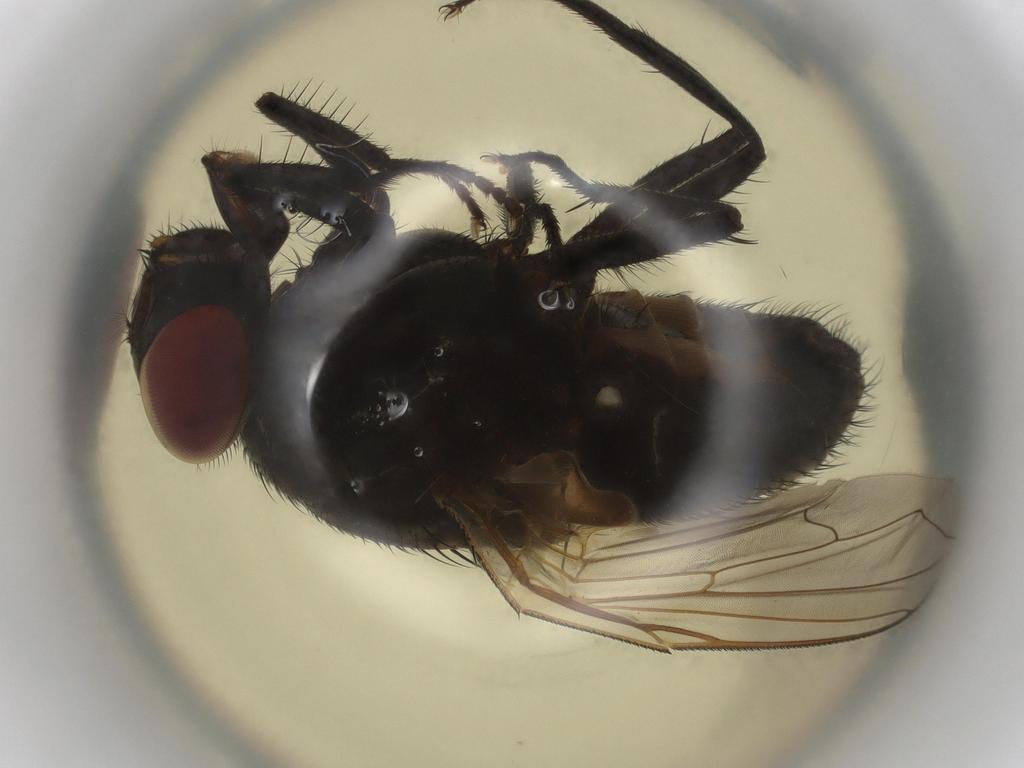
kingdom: Animalia
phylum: Arthropoda
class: Insecta
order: Diptera
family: Muscidae
